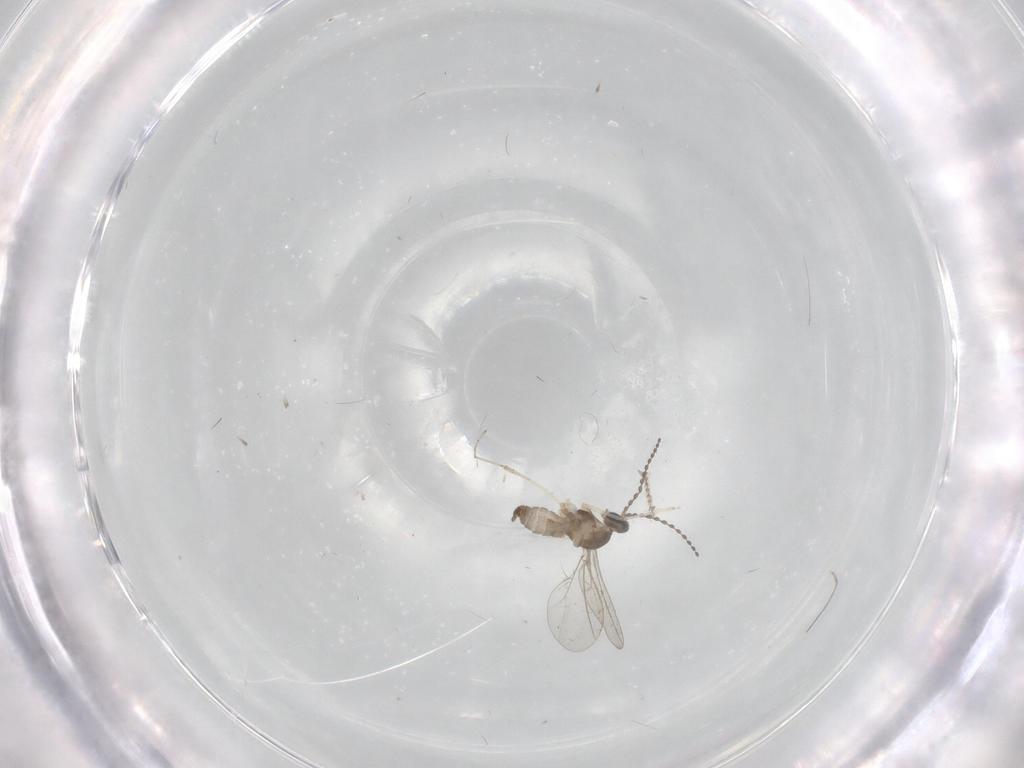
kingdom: Animalia
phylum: Arthropoda
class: Insecta
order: Diptera
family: Cecidomyiidae
